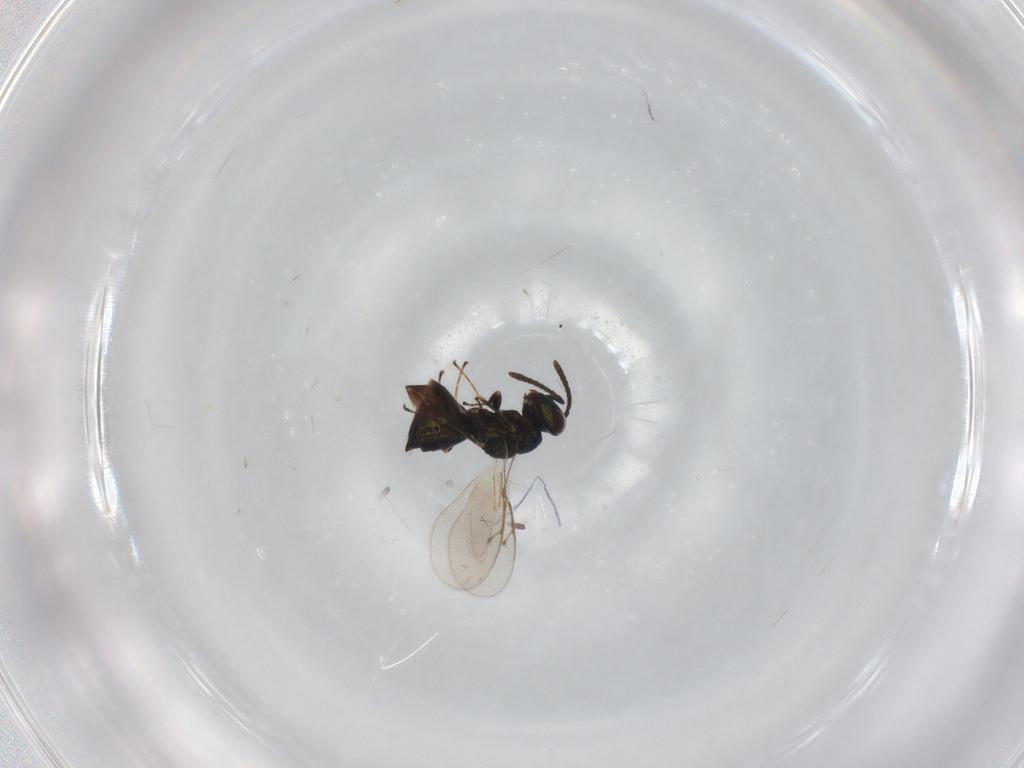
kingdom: Animalia
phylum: Arthropoda
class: Insecta
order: Hymenoptera
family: Pteromalidae
